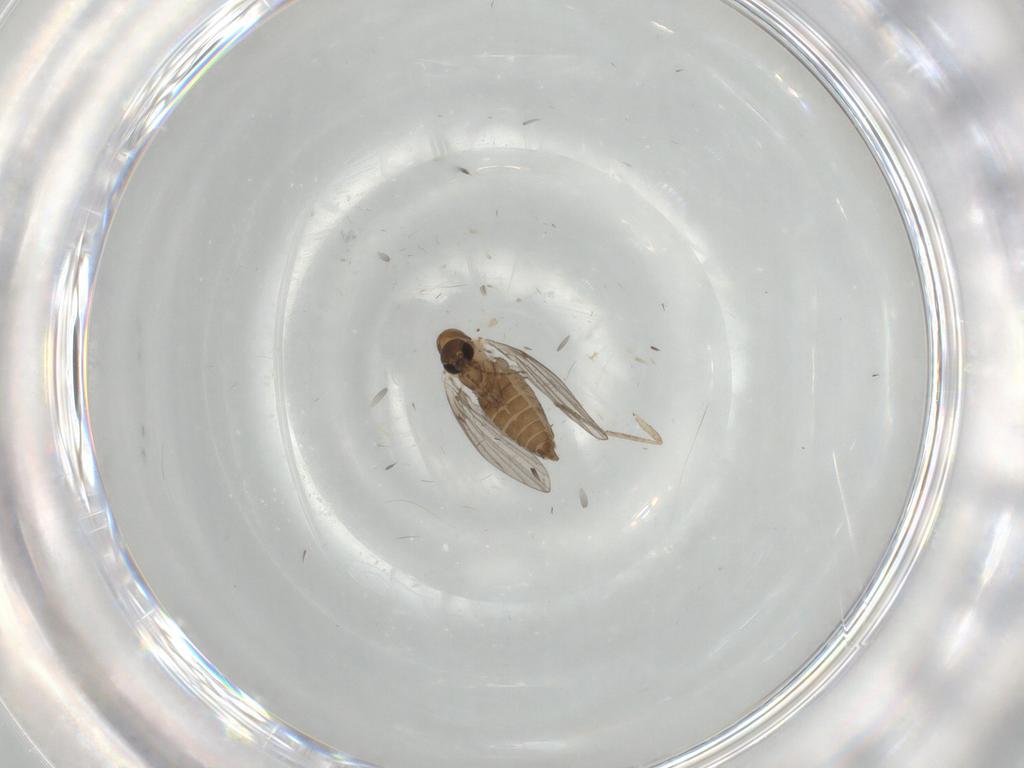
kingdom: Animalia
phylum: Arthropoda
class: Insecta
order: Diptera
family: Psychodidae
